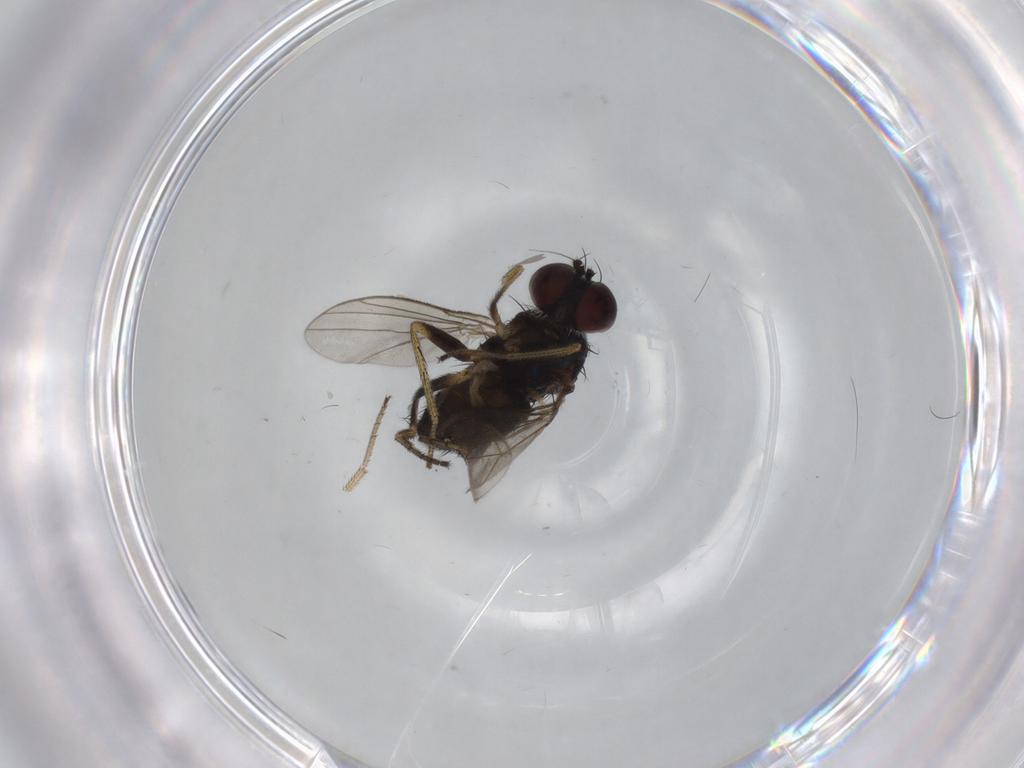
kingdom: Animalia
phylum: Arthropoda
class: Insecta
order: Diptera
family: Dolichopodidae
